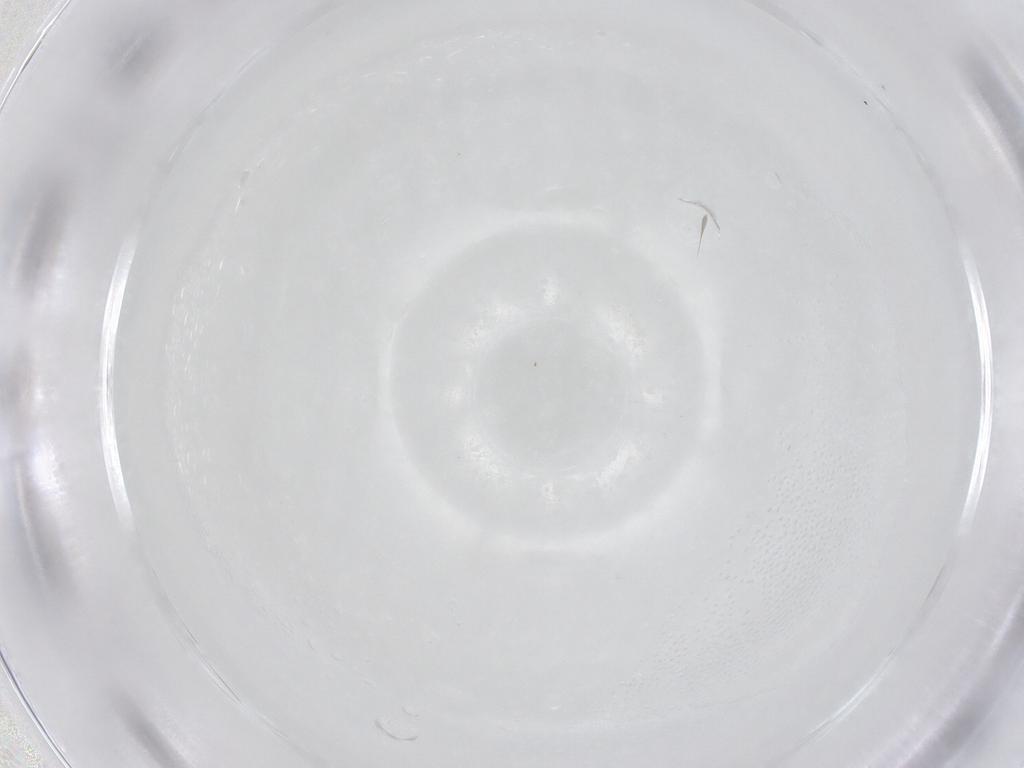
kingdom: Animalia
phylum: Arthropoda
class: Insecta
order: Diptera
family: Chironomidae
